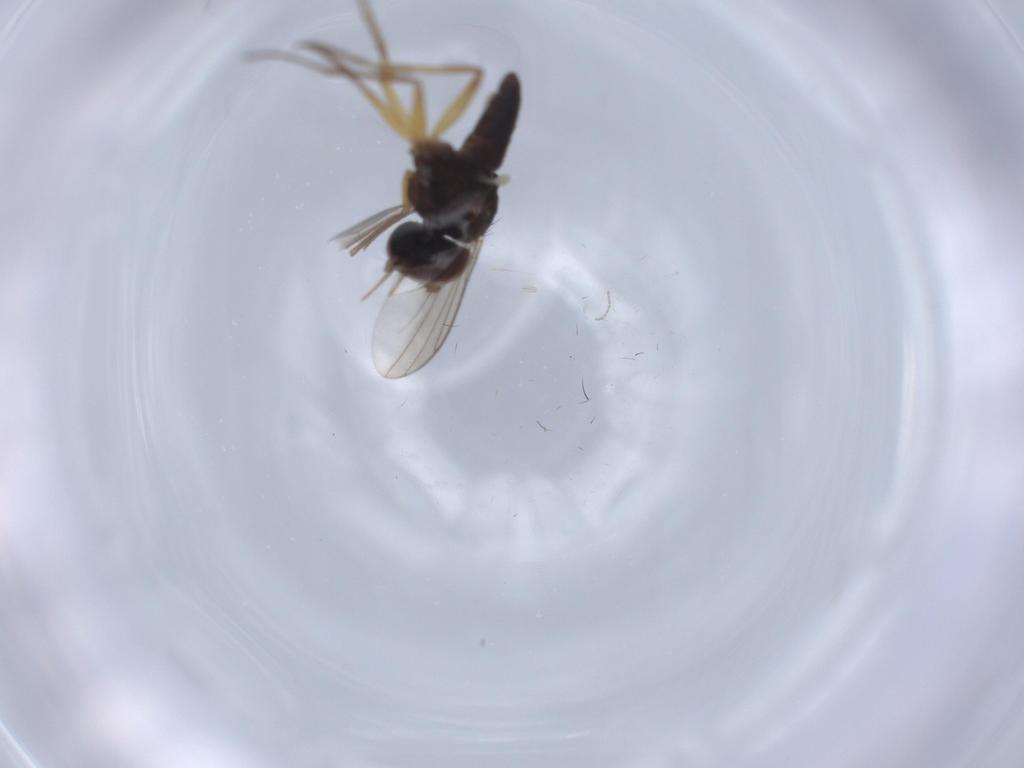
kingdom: Animalia
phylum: Arthropoda
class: Insecta
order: Diptera
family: Dolichopodidae
